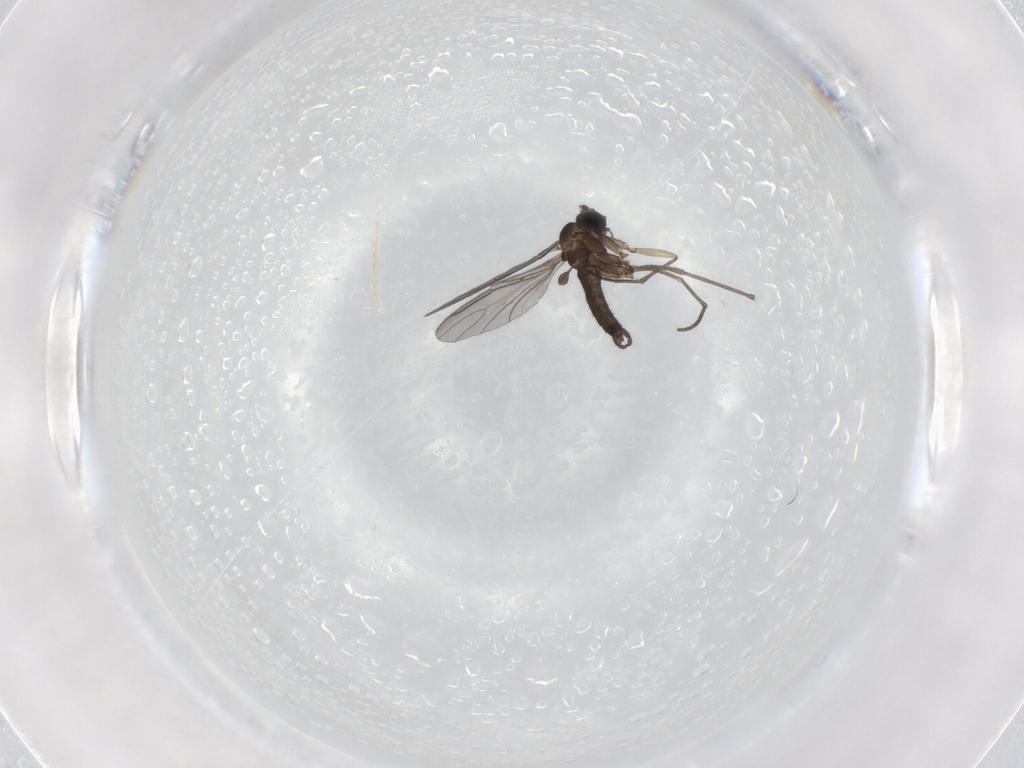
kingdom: Animalia
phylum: Arthropoda
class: Insecta
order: Diptera
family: Sciaridae
